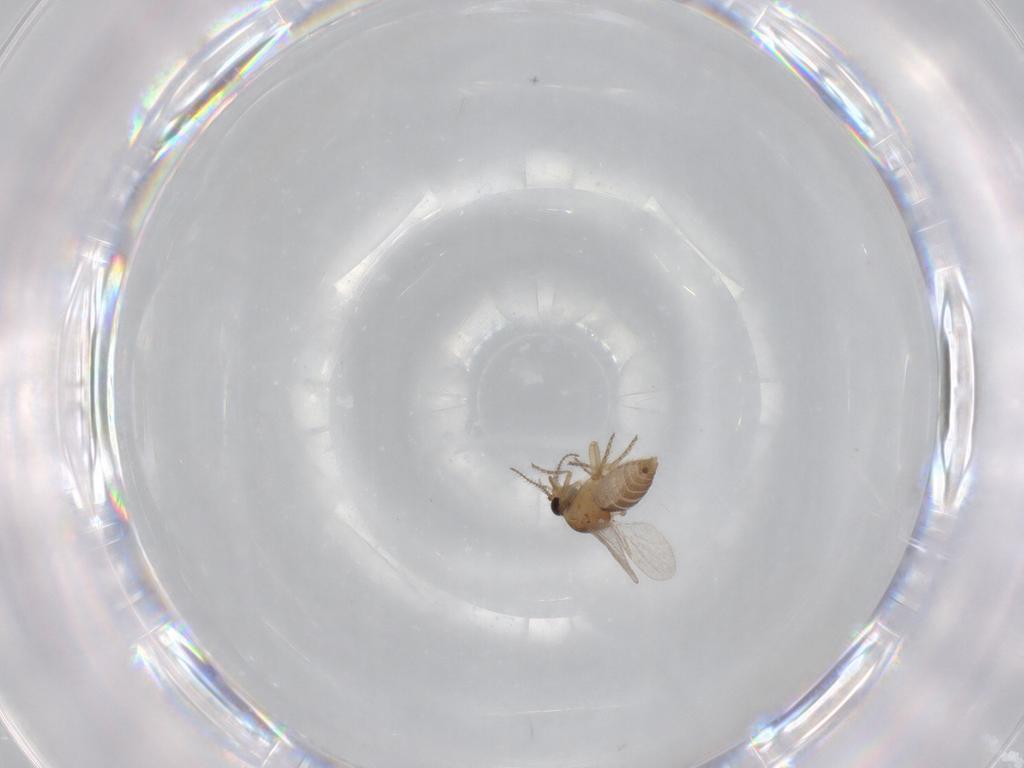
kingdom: Animalia
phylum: Arthropoda
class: Insecta
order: Diptera
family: Ceratopogonidae
